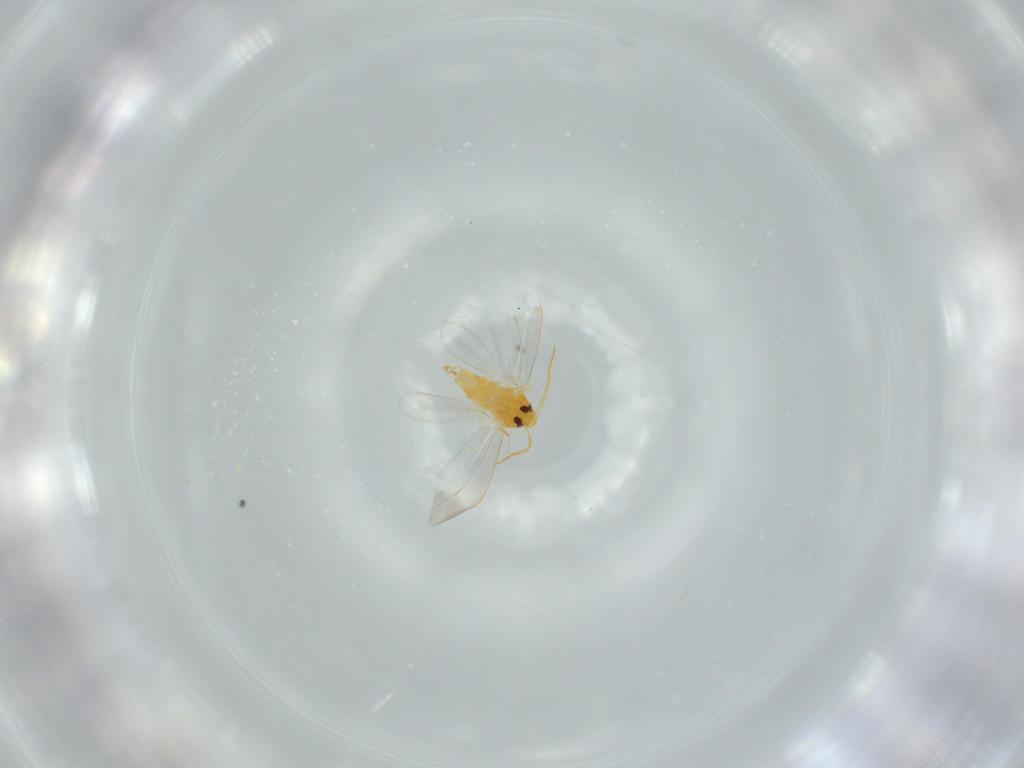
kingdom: Animalia
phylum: Arthropoda
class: Insecta
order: Hemiptera
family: Aleyrodidae
